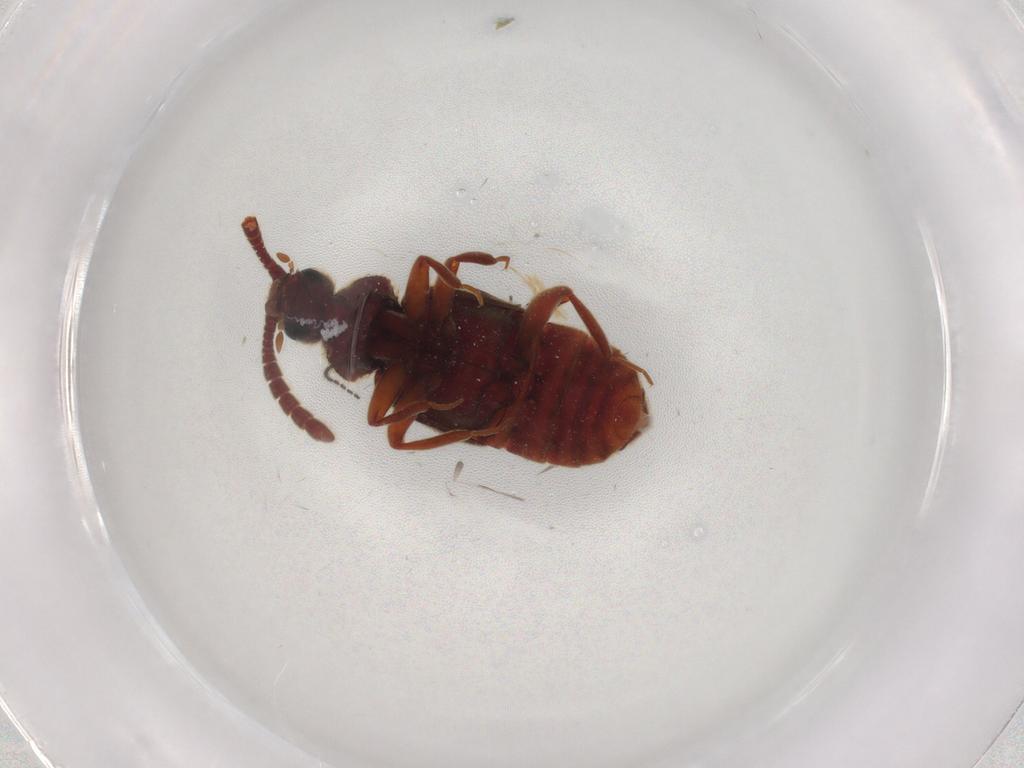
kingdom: Animalia
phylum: Arthropoda
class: Insecta
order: Coleoptera
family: Staphylinidae
